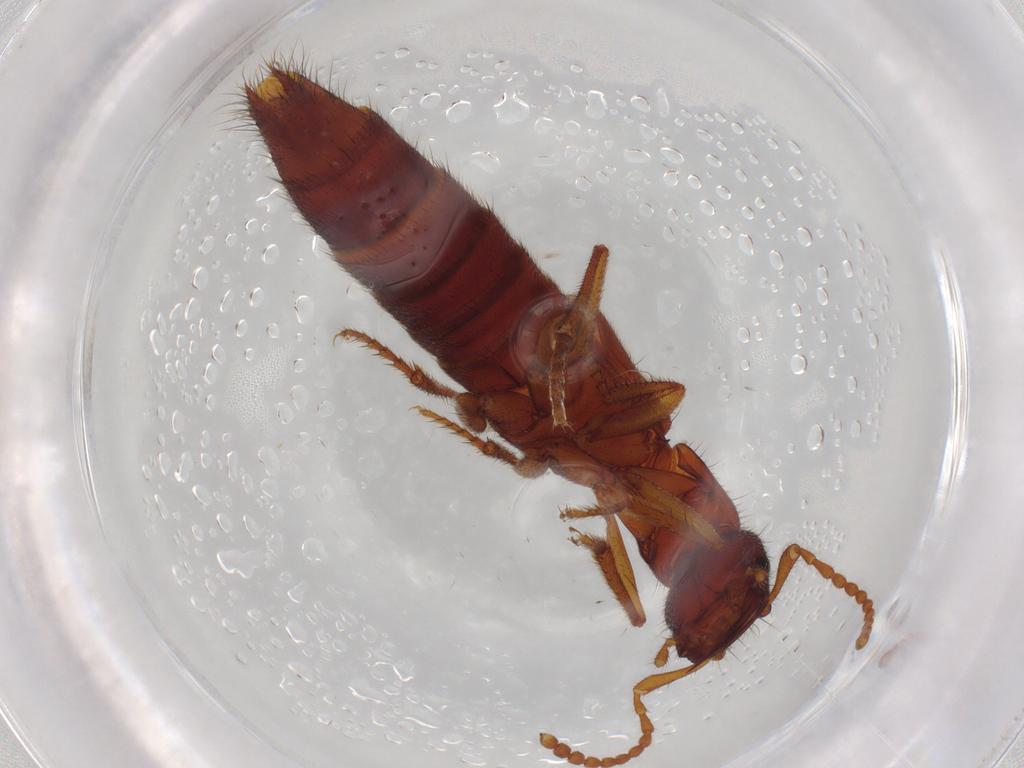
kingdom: Animalia
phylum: Arthropoda
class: Insecta
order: Coleoptera
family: Staphylinidae
